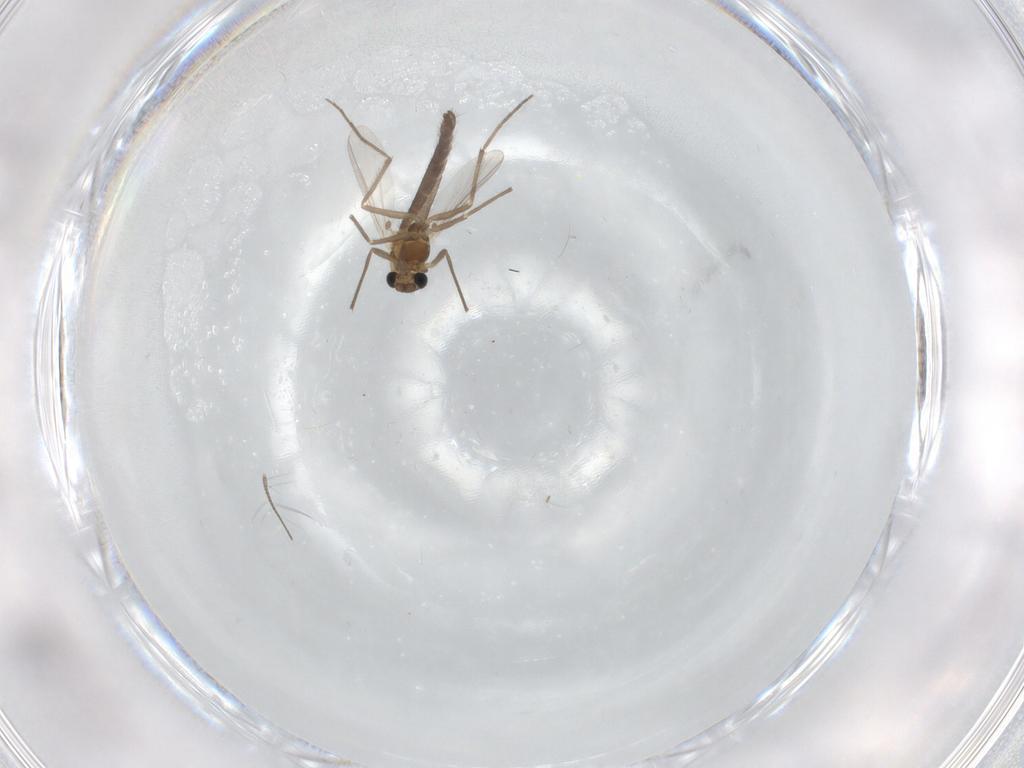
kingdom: Animalia
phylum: Arthropoda
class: Insecta
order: Diptera
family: Chironomidae
